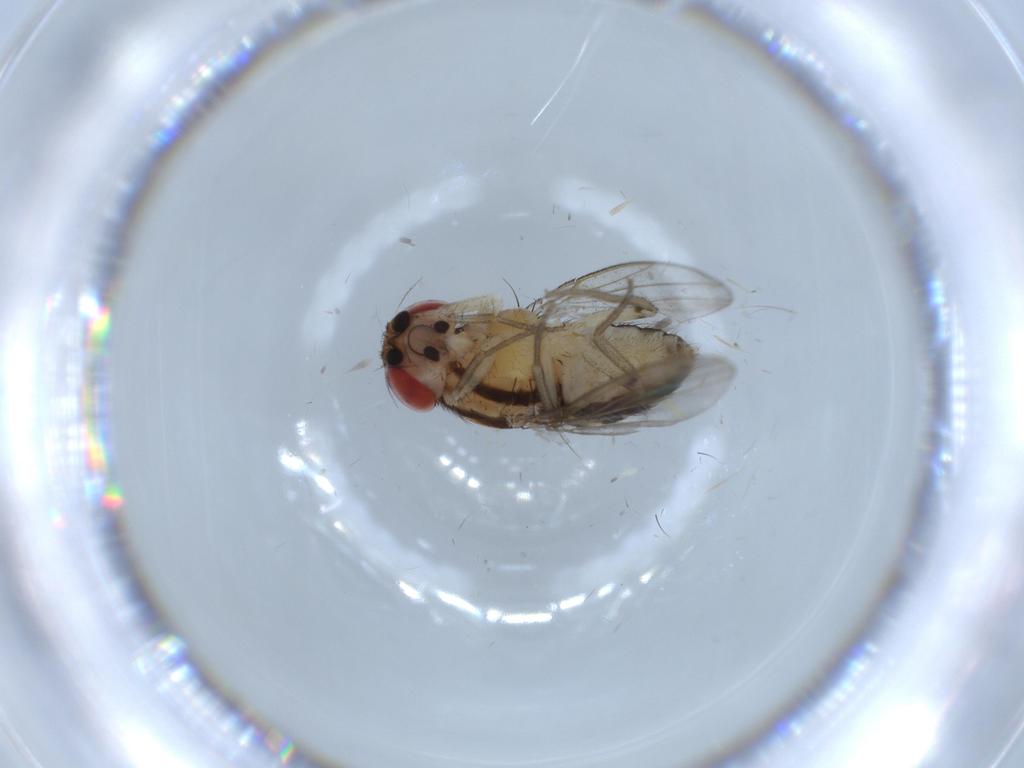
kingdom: Animalia
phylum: Arthropoda
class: Insecta
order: Diptera
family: Drosophilidae
